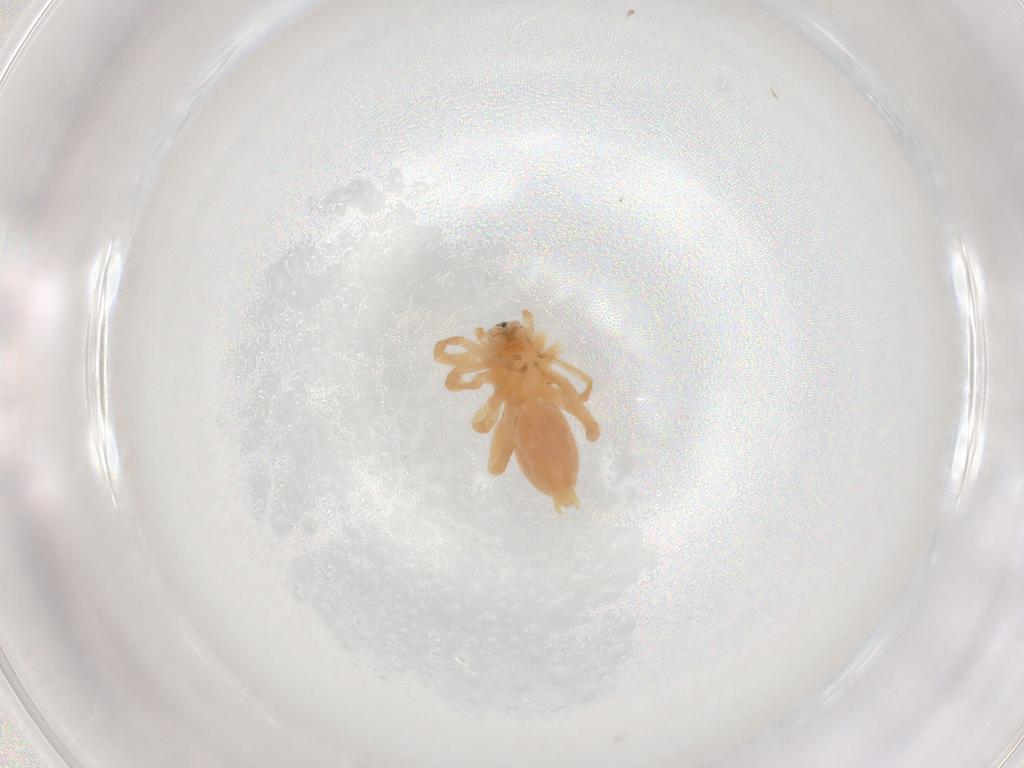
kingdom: Animalia
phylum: Arthropoda
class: Arachnida
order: Araneae
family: Anyphaenidae
